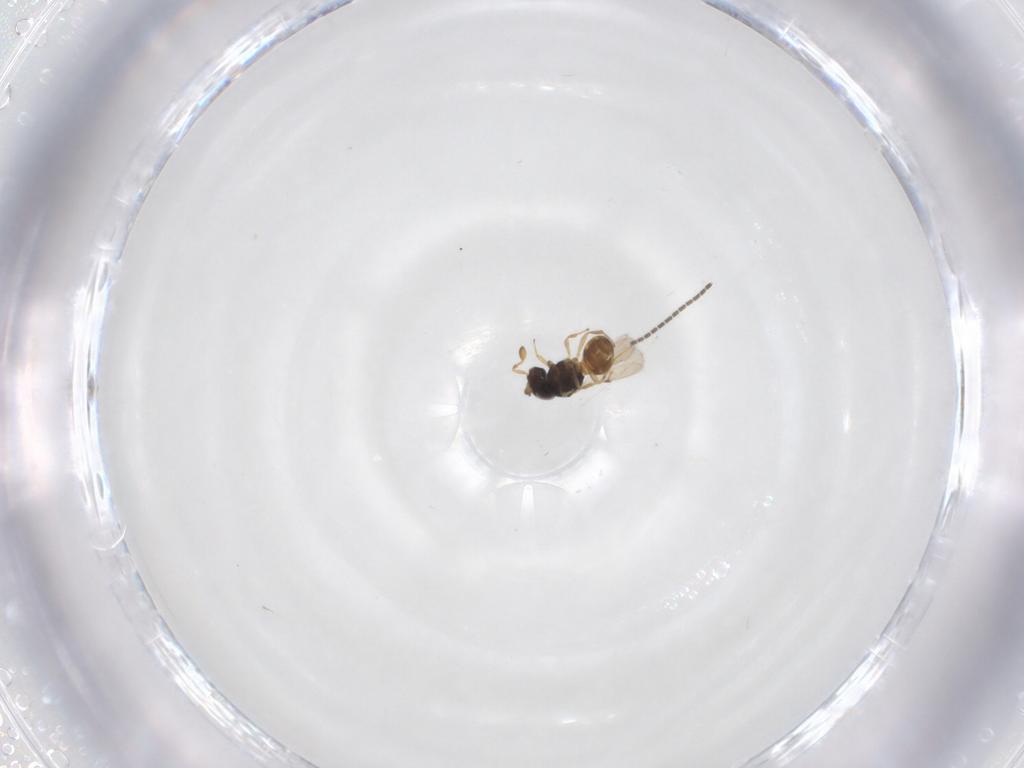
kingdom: Animalia
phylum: Arthropoda
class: Insecta
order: Hymenoptera
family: Scelionidae
